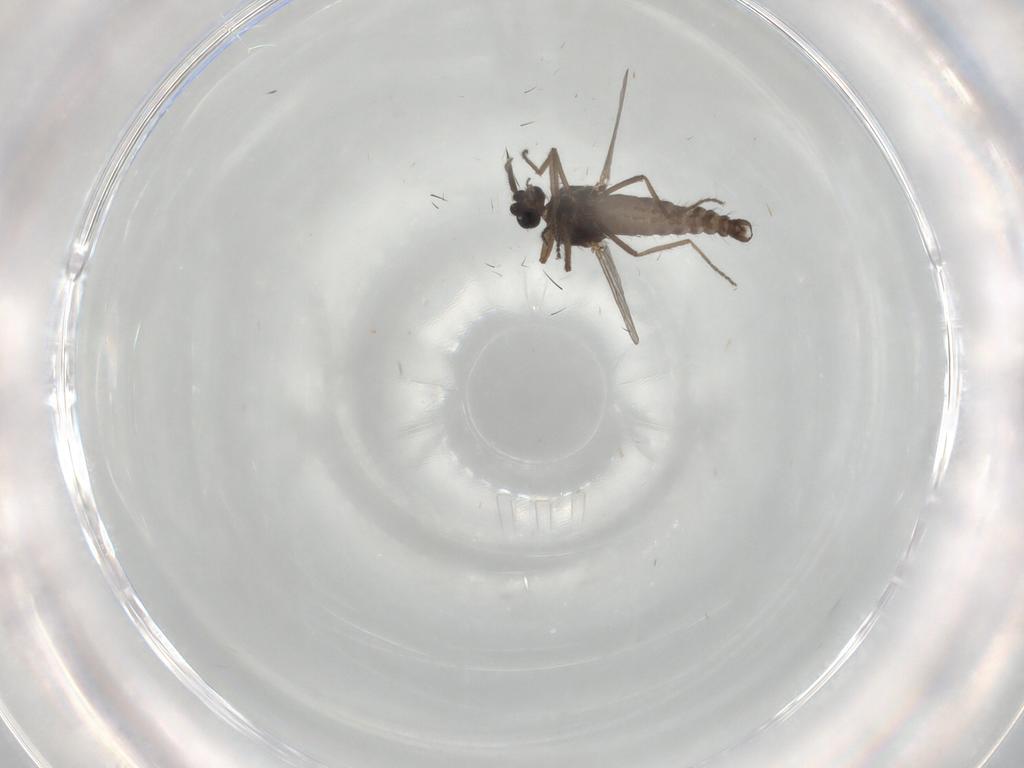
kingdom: Animalia
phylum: Arthropoda
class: Insecta
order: Diptera
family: Ceratopogonidae
